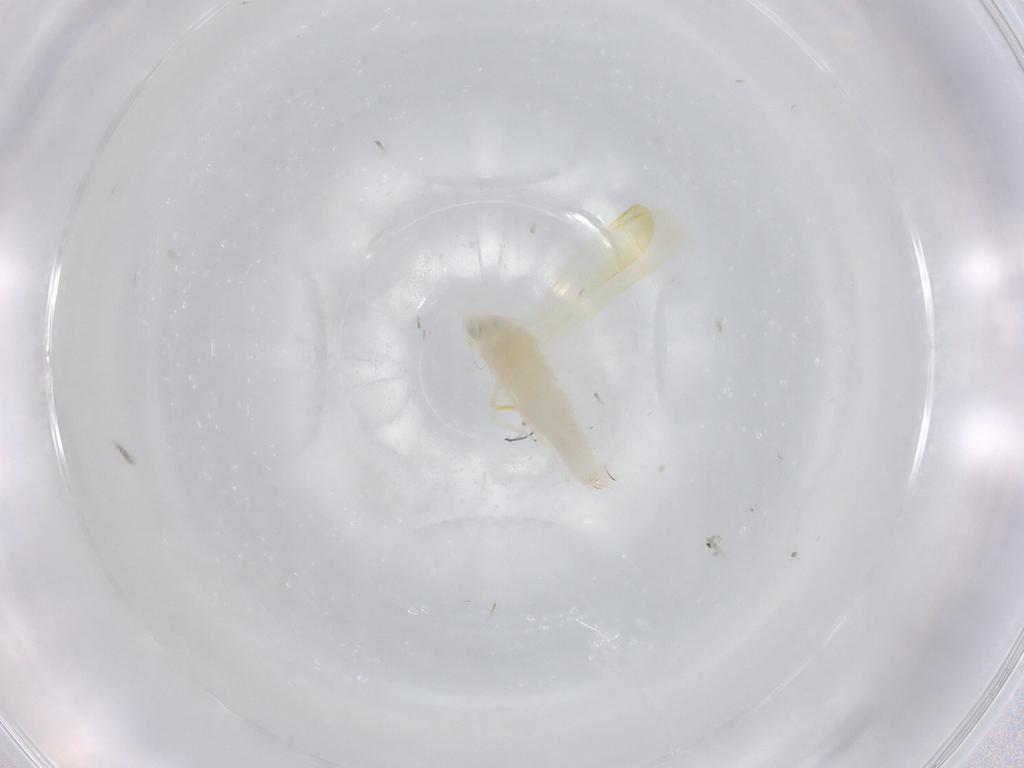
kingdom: Animalia
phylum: Arthropoda
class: Insecta
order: Hemiptera
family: Cicadellidae
